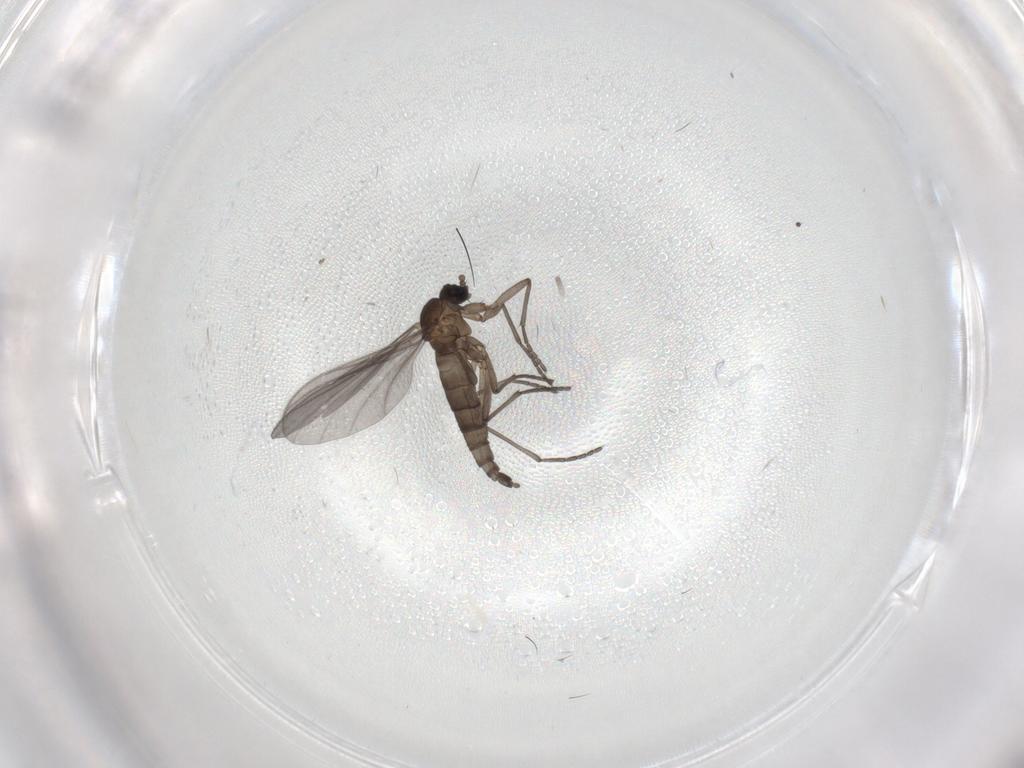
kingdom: Animalia
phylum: Arthropoda
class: Insecta
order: Diptera
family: Sciaridae
